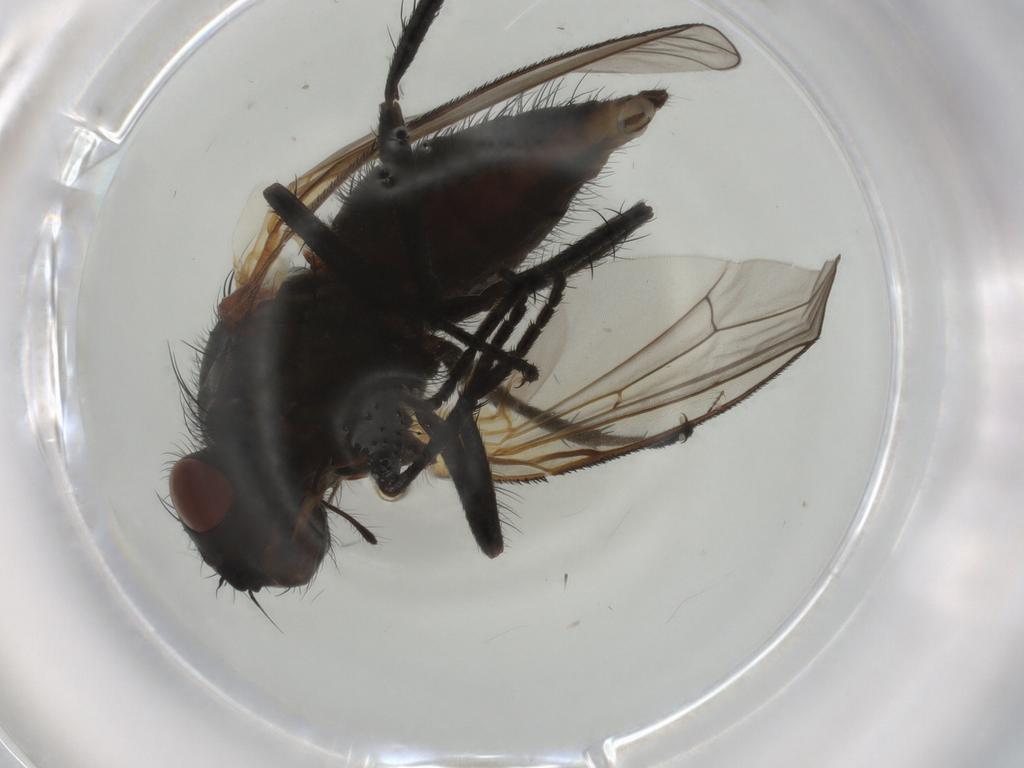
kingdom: Animalia
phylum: Arthropoda
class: Insecta
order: Diptera
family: Anthomyiidae
